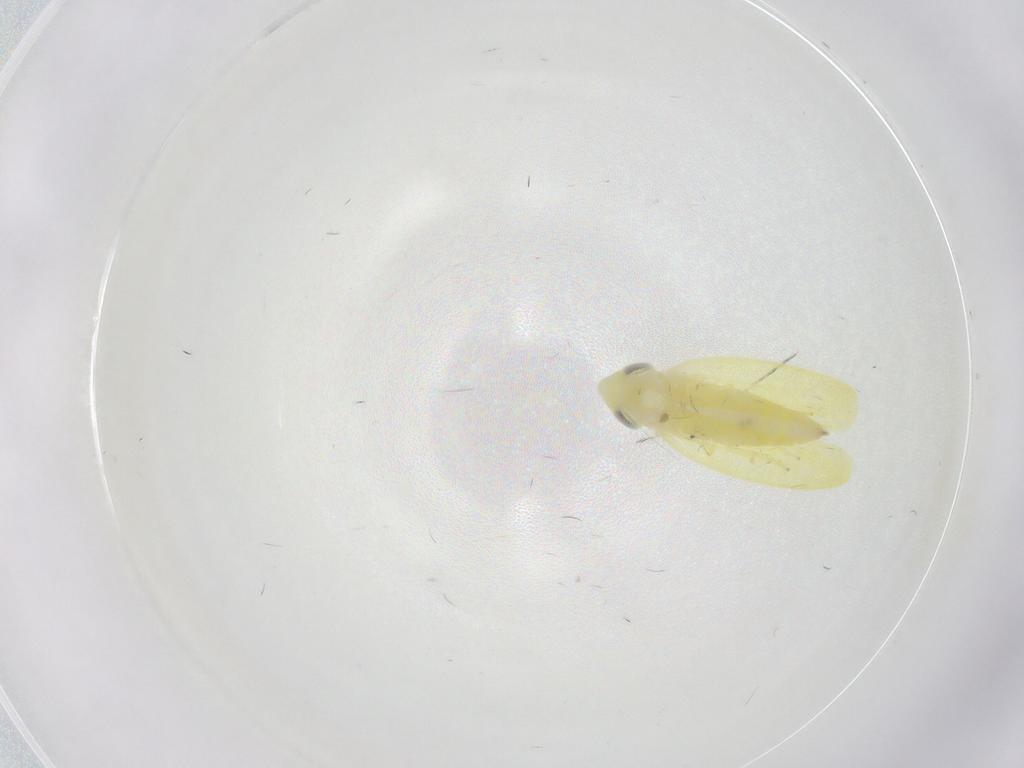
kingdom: Animalia
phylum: Arthropoda
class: Insecta
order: Hemiptera
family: Cicadellidae
